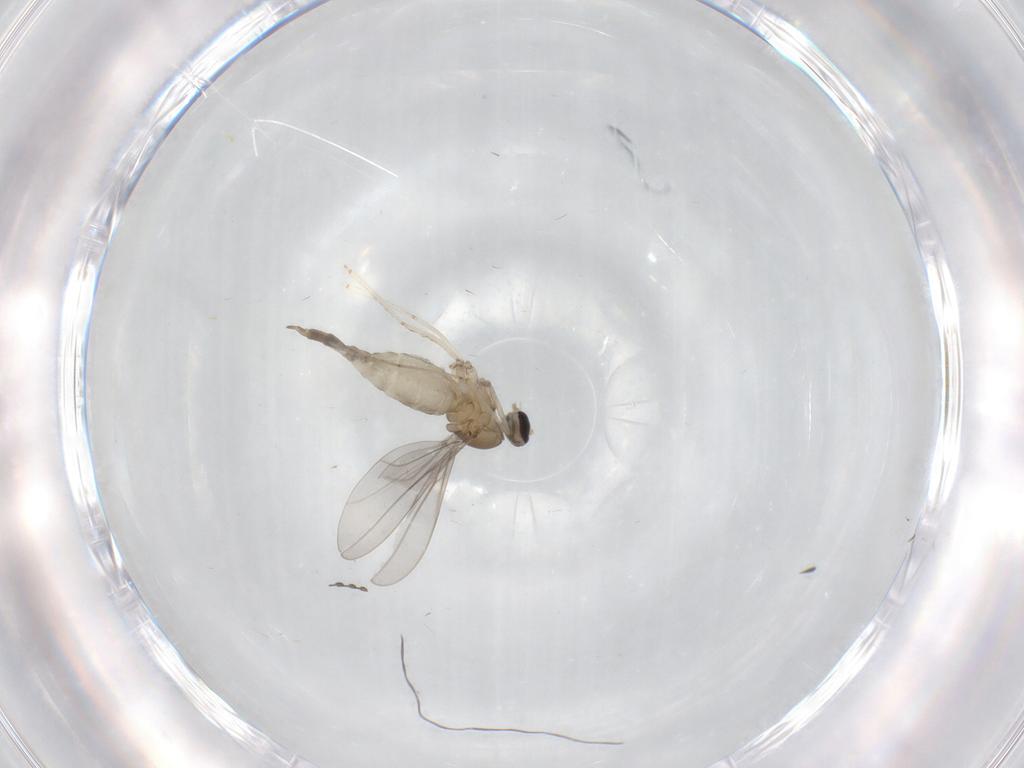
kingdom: Animalia
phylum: Arthropoda
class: Insecta
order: Diptera
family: Cecidomyiidae
